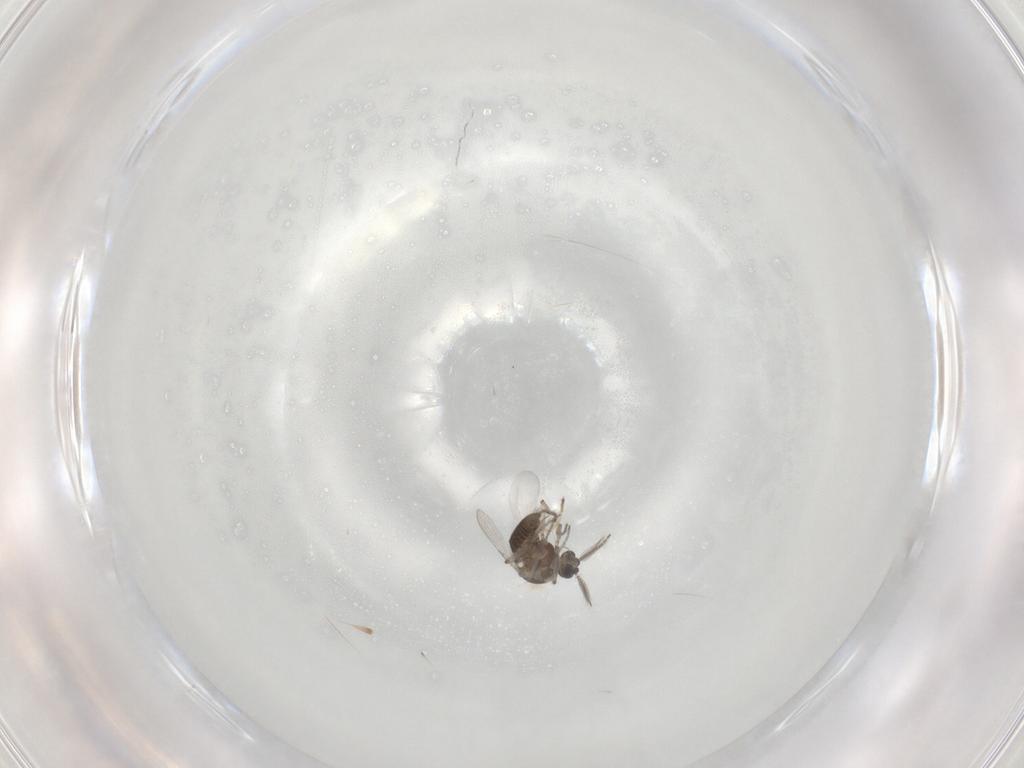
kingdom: Animalia
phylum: Arthropoda
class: Insecta
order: Diptera
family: Ceratopogonidae
